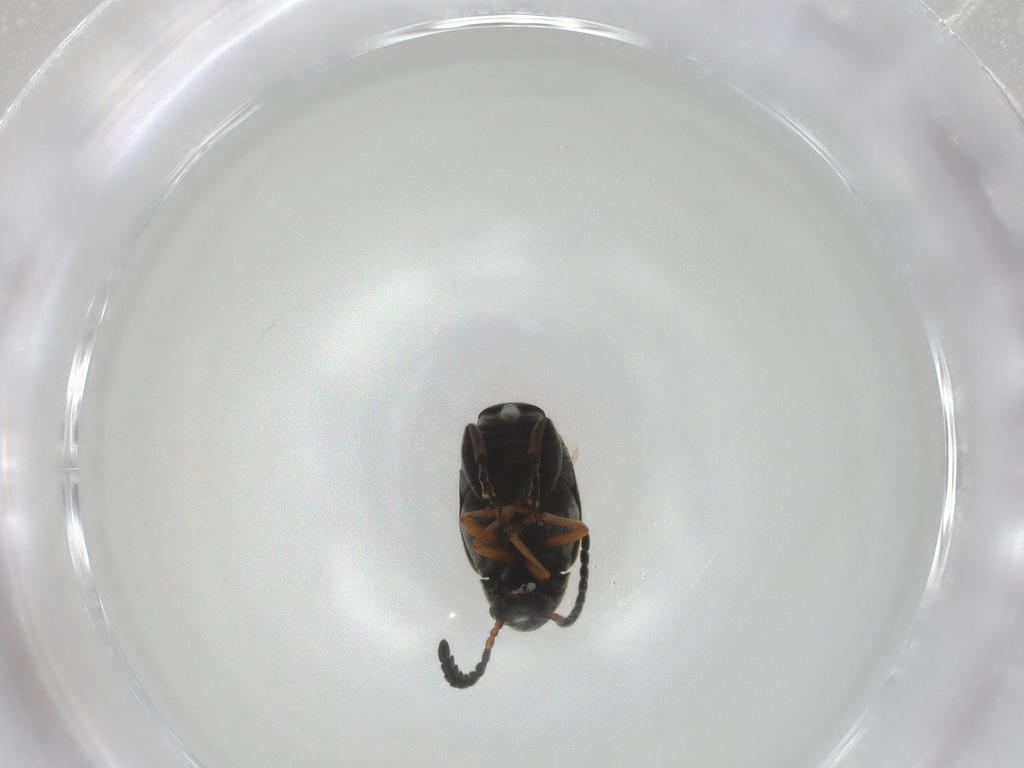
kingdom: Animalia
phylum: Arthropoda
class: Insecta
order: Coleoptera
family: Chrysomelidae
